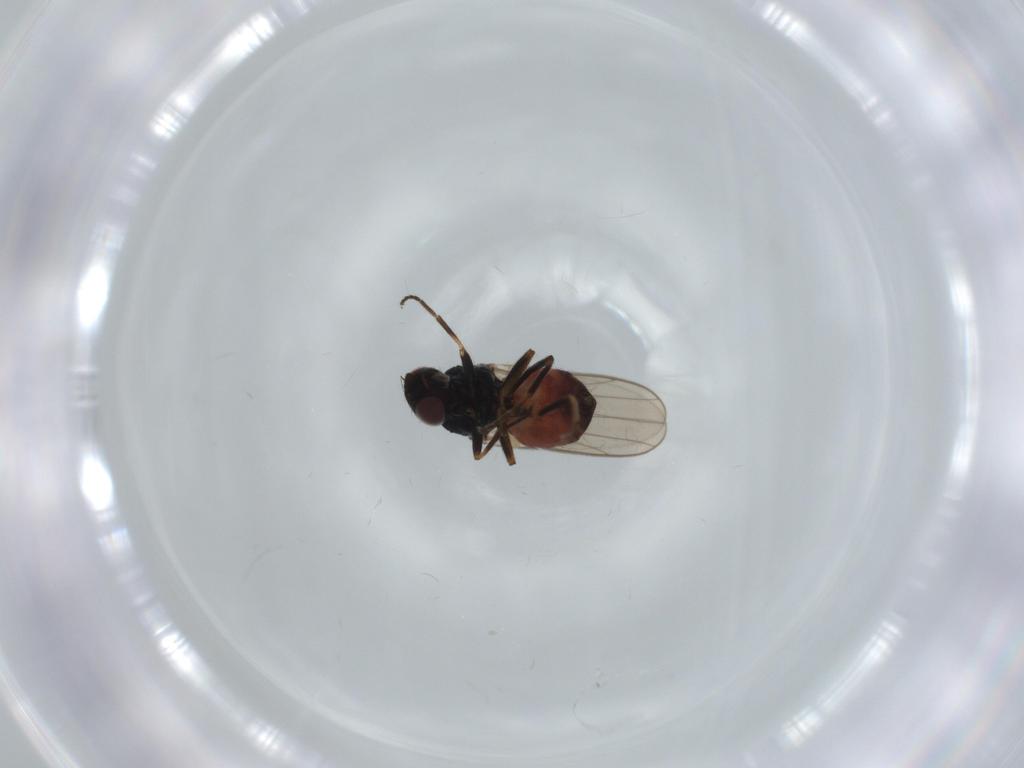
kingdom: Animalia
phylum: Arthropoda
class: Insecta
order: Diptera
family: Chloropidae
